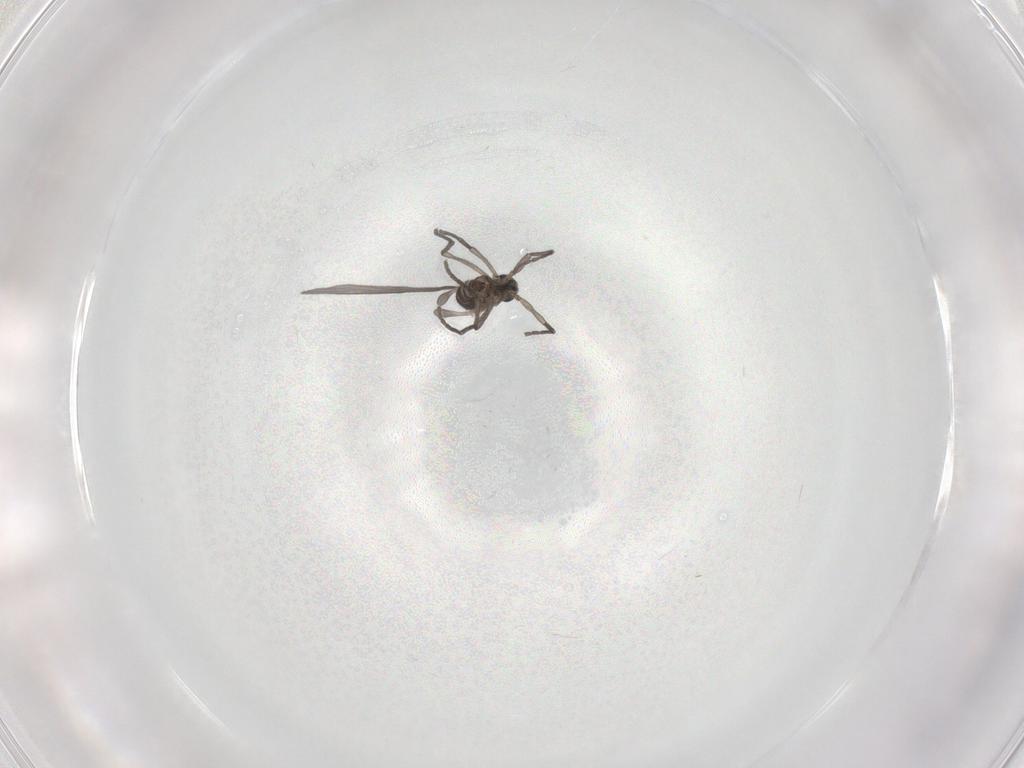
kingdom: Animalia
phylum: Arthropoda
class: Insecta
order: Diptera
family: Sciaridae
